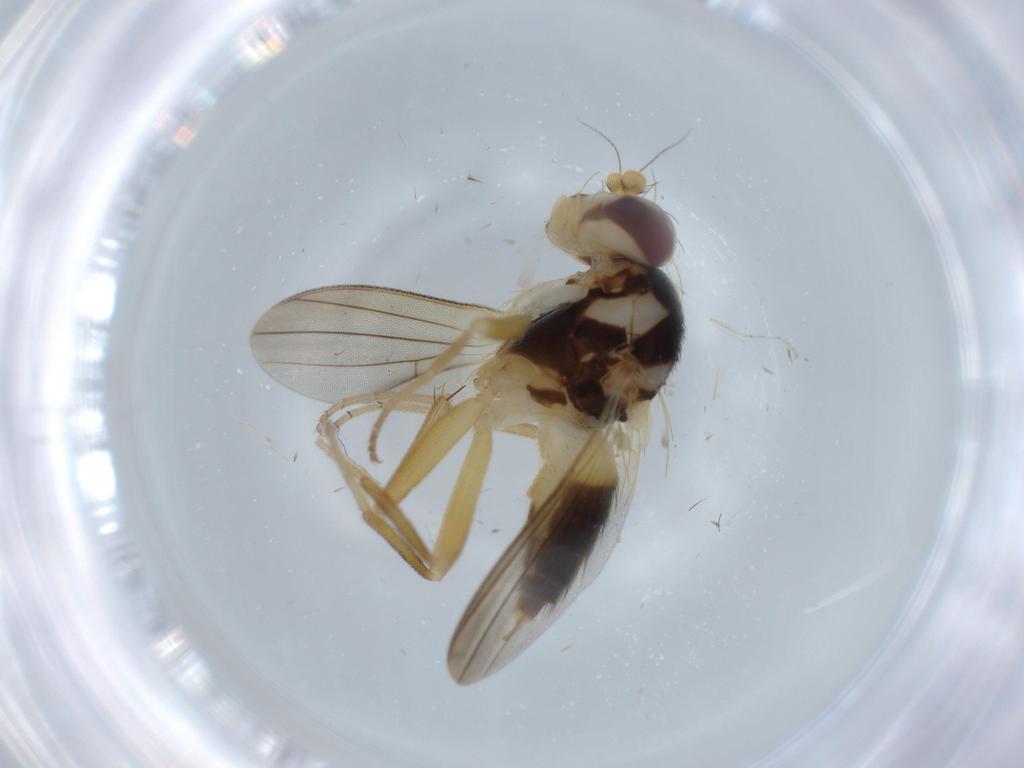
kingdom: Animalia
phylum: Arthropoda
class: Insecta
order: Diptera
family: Clusiidae
